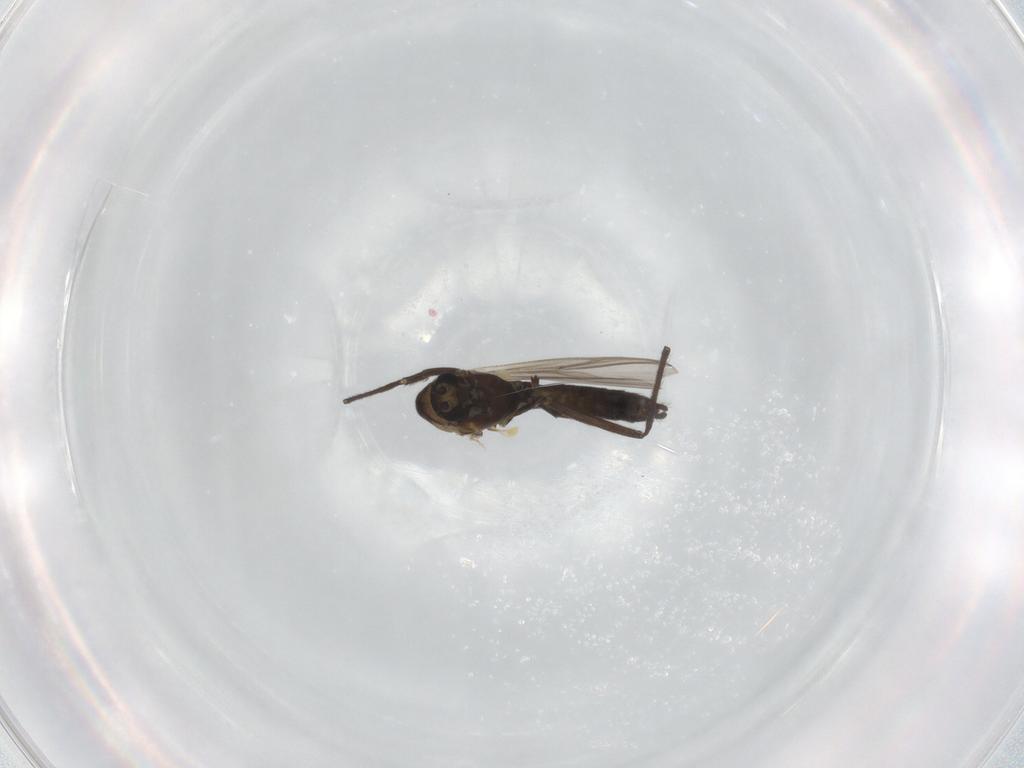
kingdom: Animalia
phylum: Arthropoda
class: Insecta
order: Diptera
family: Chironomidae
